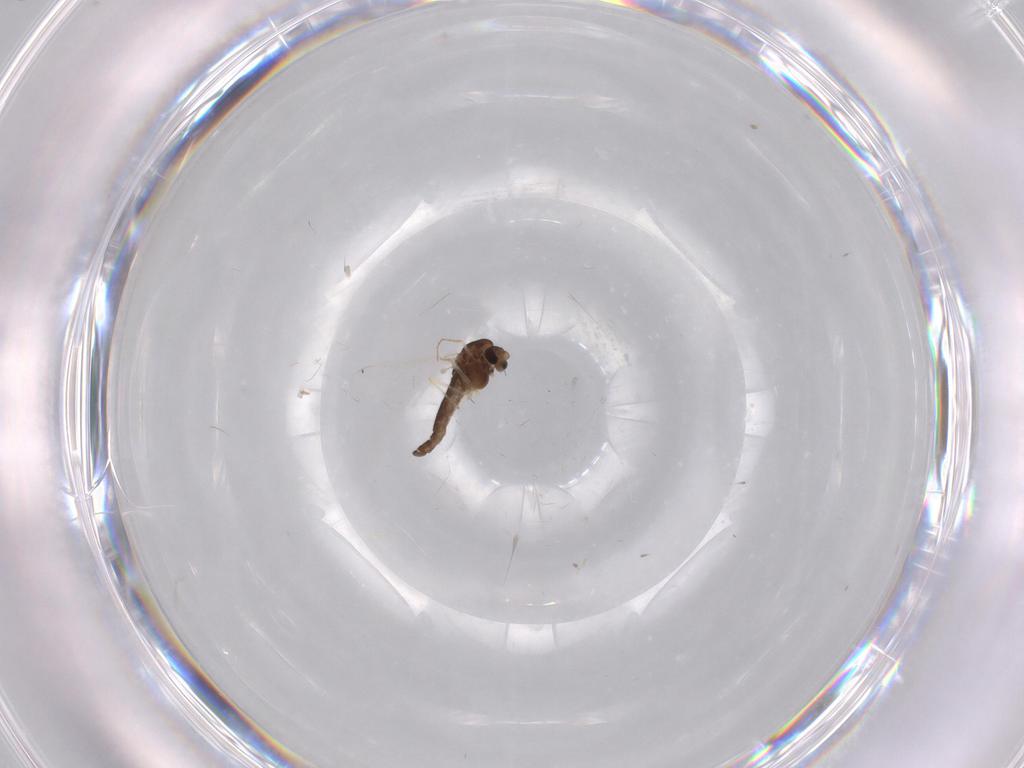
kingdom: Animalia
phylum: Arthropoda
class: Insecta
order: Diptera
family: Chironomidae
